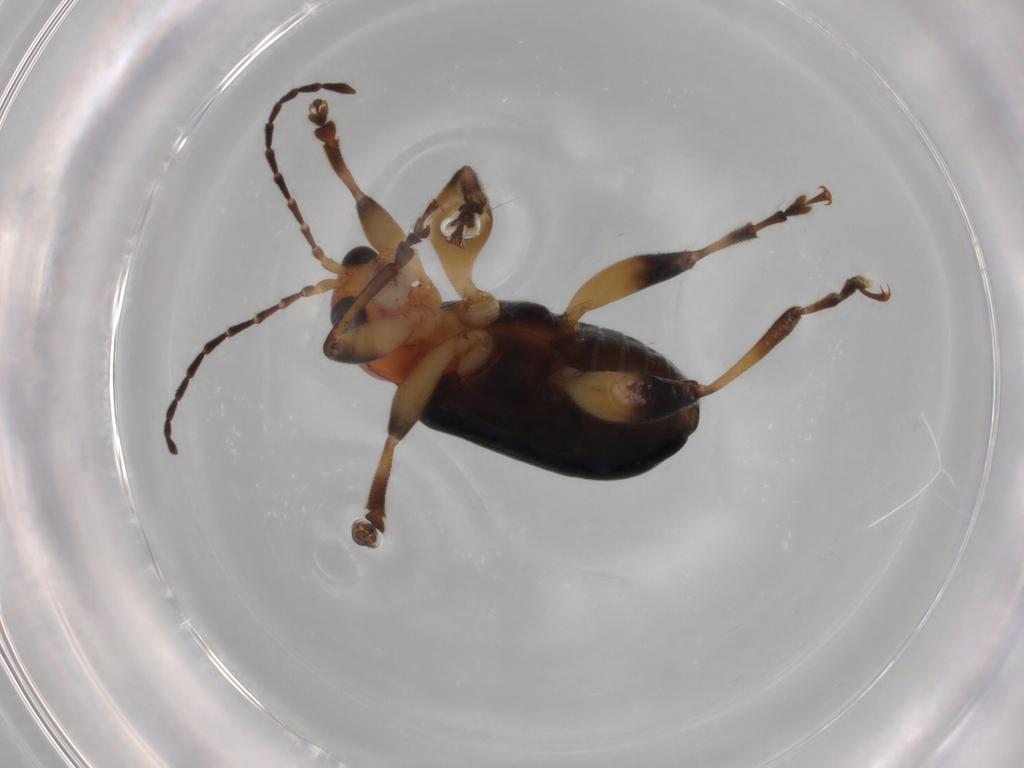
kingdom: Animalia
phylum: Arthropoda
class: Insecta
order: Coleoptera
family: Chrysomelidae
